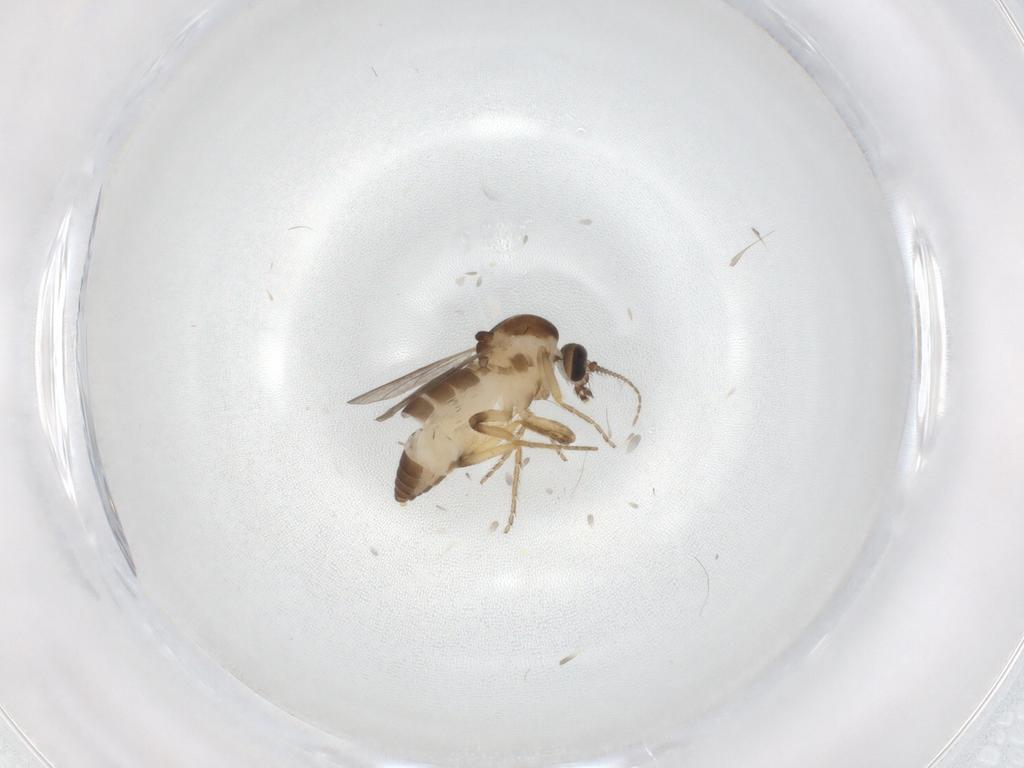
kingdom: Animalia
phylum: Arthropoda
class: Insecta
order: Diptera
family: Ceratopogonidae
